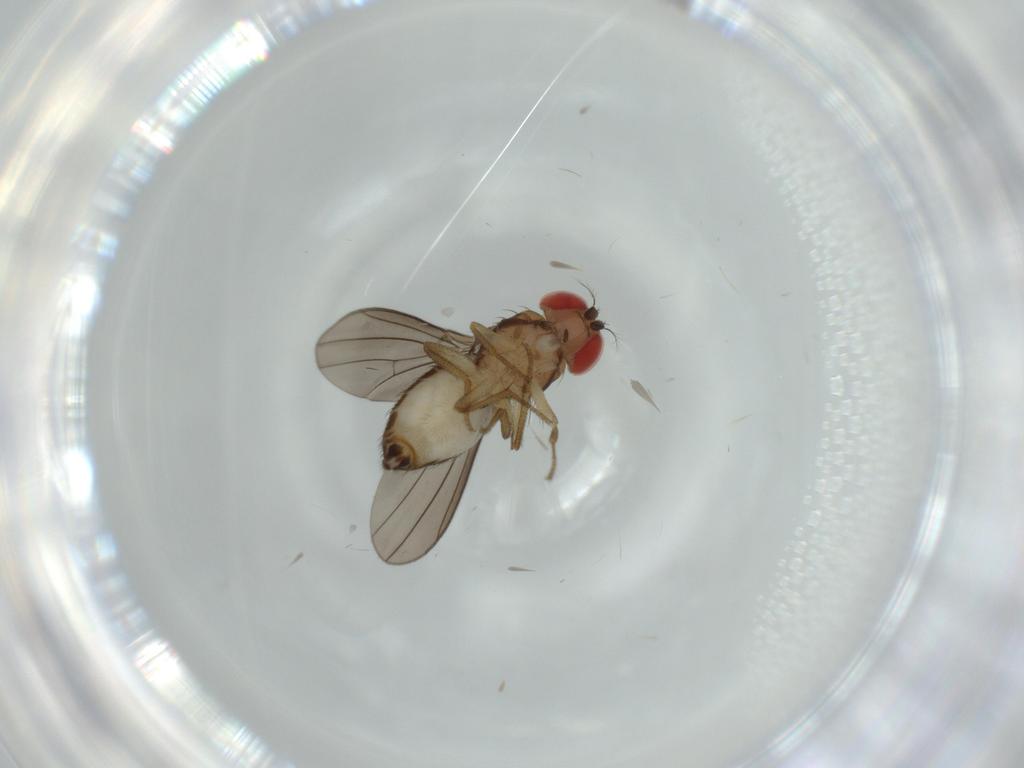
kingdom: Animalia
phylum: Arthropoda
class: Insecta
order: Diptera
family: Drosophilidae
